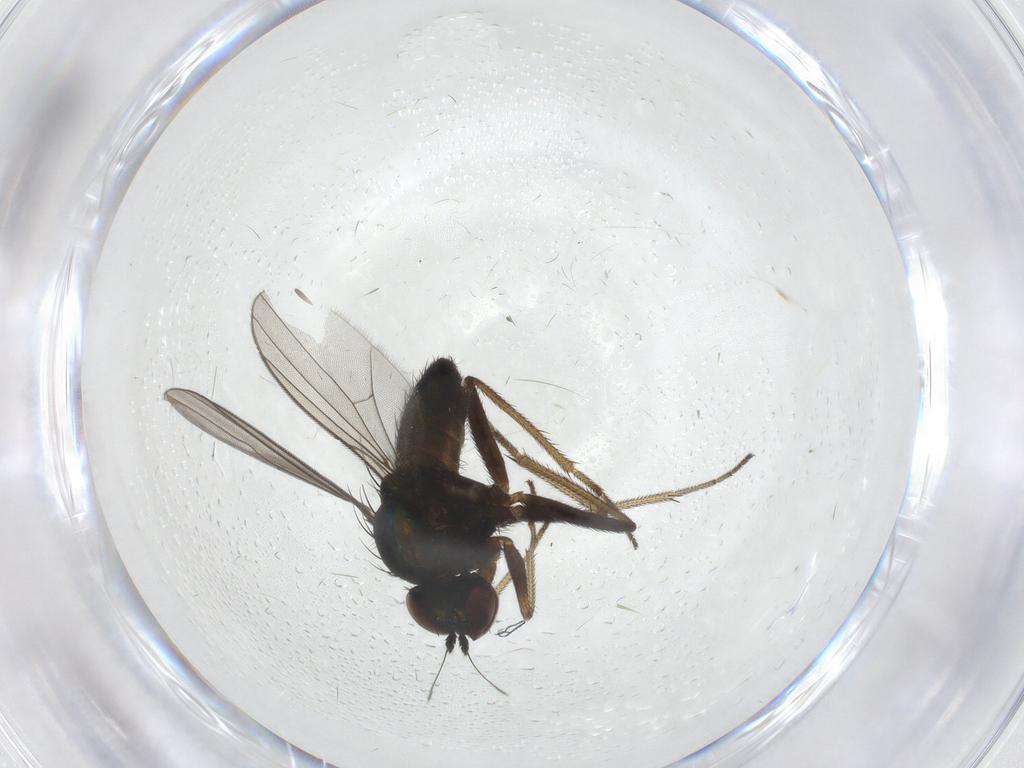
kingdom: Animalia
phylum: Arthropoda
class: Insecta
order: Diptera
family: Dolichopodidae
